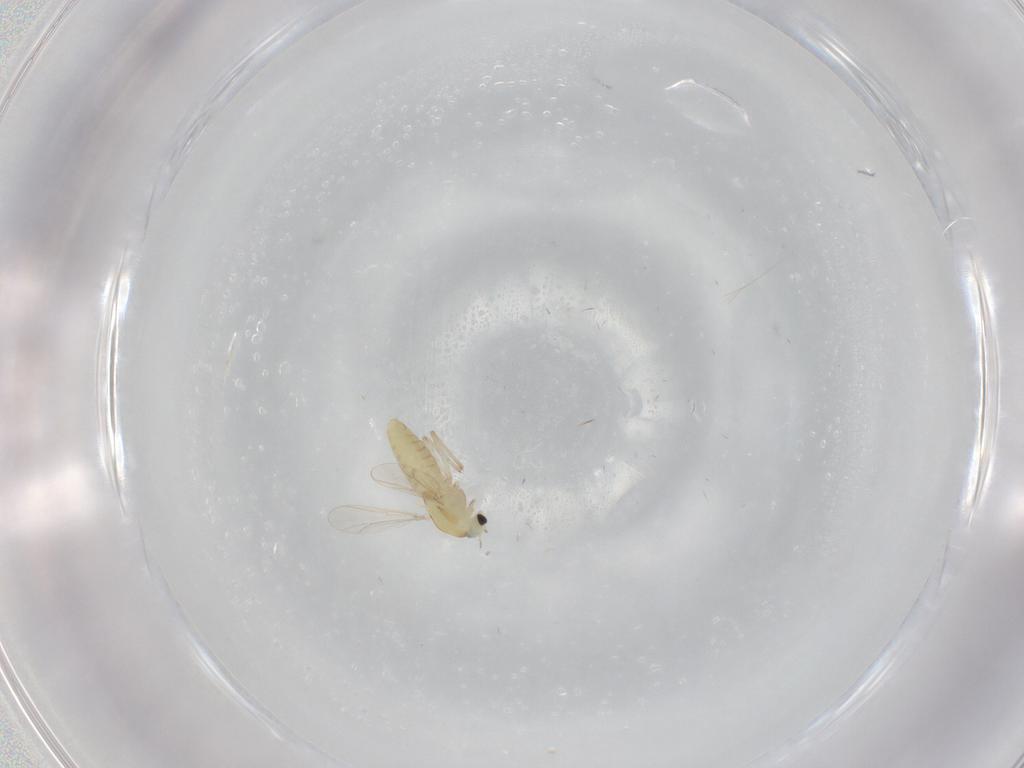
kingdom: Animalia
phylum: Arthropoda
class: Insecta
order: Diptera
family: Chironomidae
